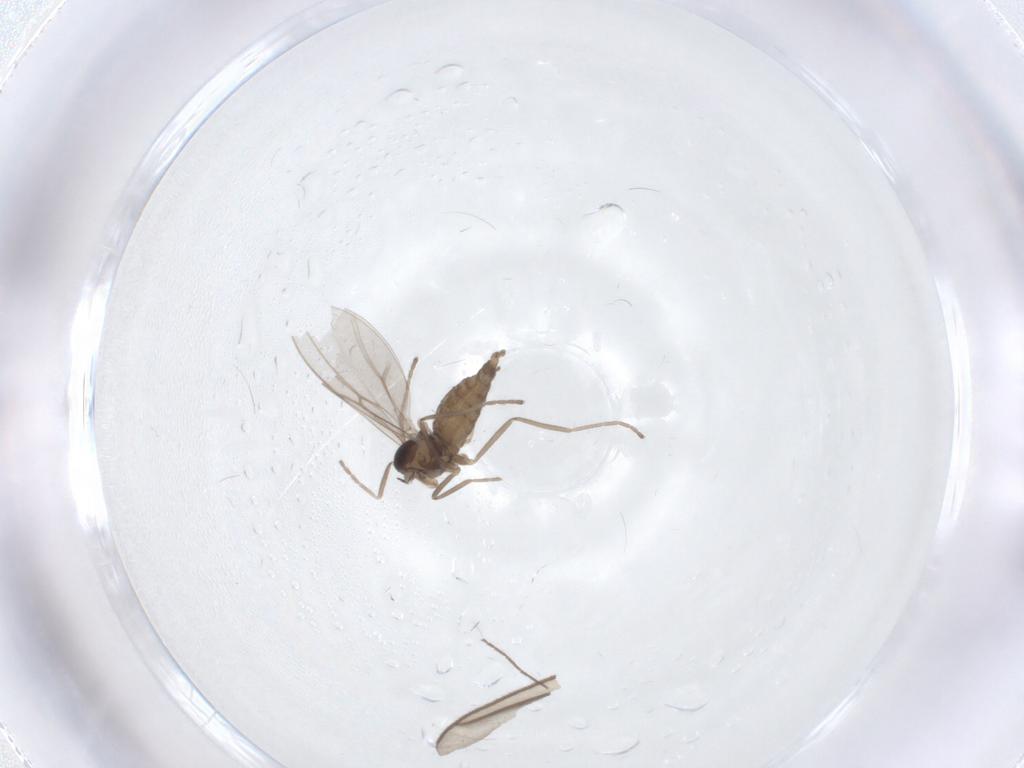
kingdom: Animalia
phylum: Arthropoda
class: Insecta
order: Diptera
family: Cecidomyiidae
